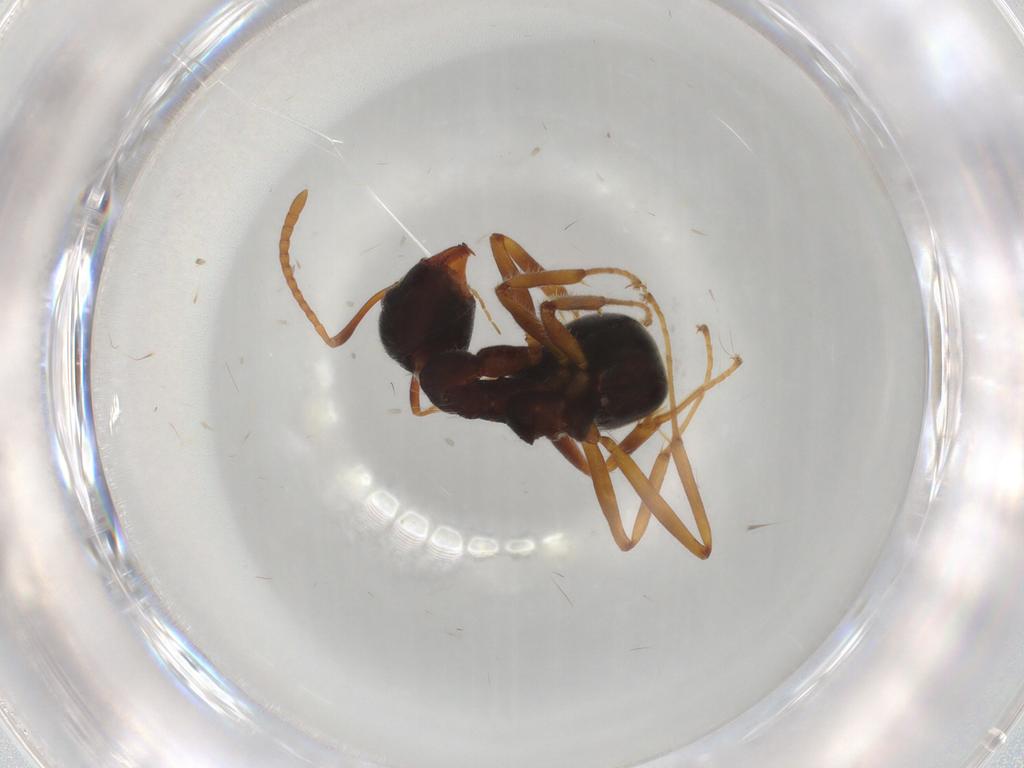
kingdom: Animalia
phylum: Arthropoda
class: Insecta
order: Hymenoptera
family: Formicidae
